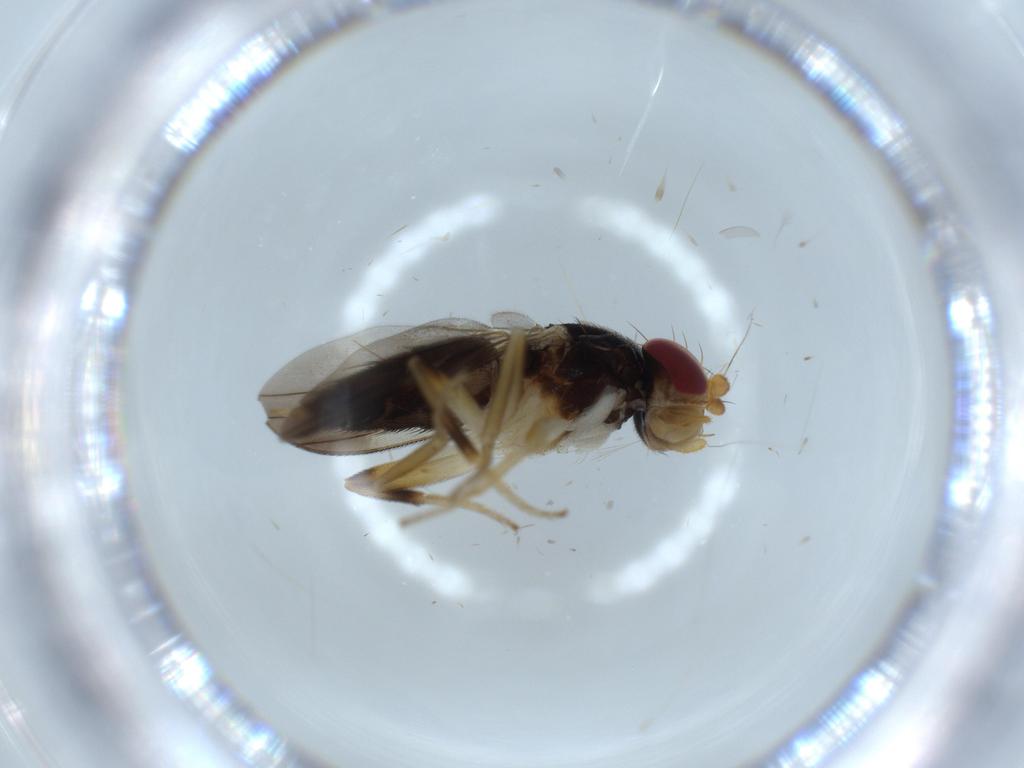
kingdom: Animalia
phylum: Arthropoda
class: Insecta
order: Diptera
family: Clusiidae
